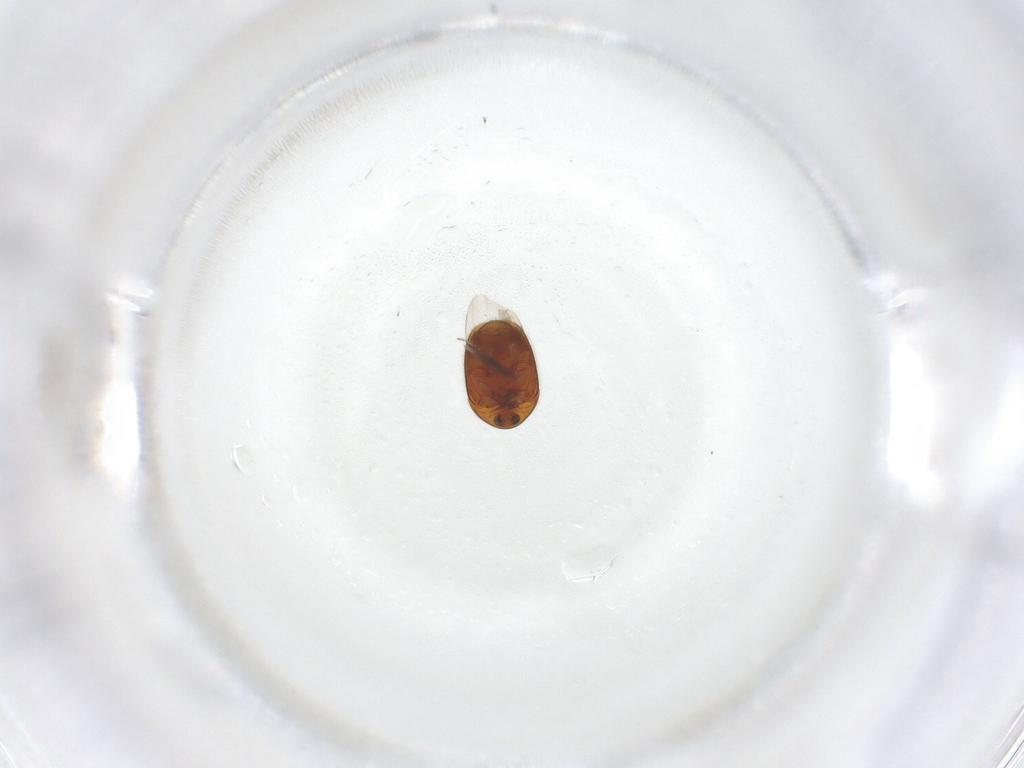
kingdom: Animalia
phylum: Arthropoda
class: Insecta
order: Coleoptera
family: Corylophidae
